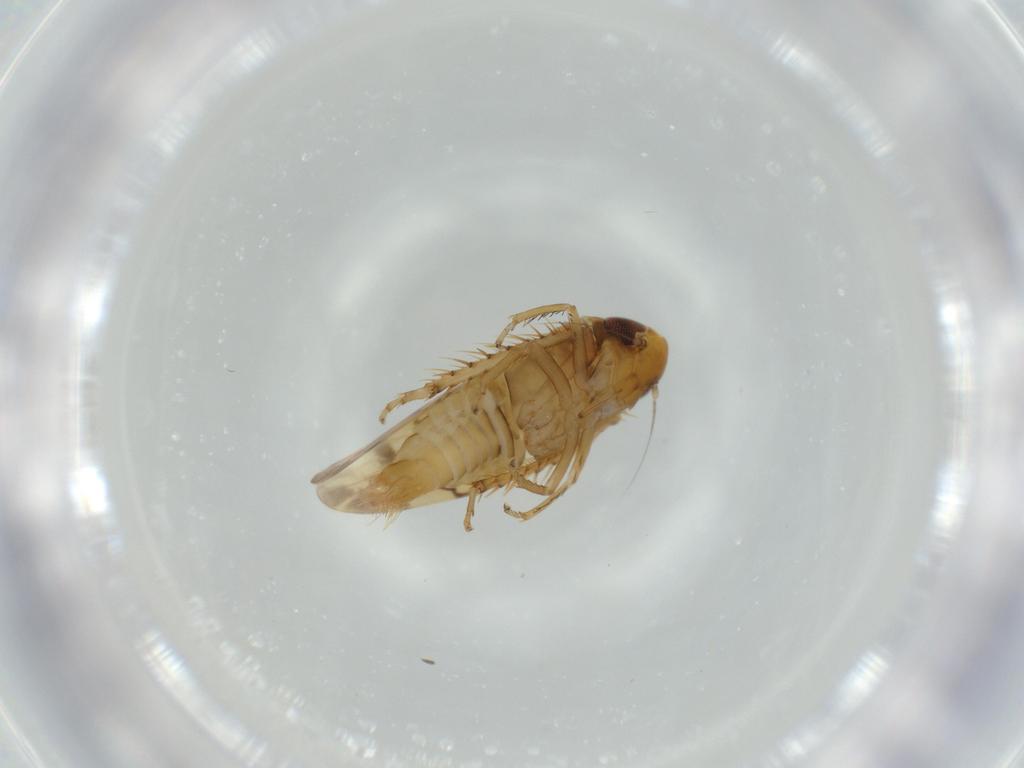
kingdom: Animalia
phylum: Arthropoda
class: Insecta
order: Hemiptera
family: Cicadellidae
